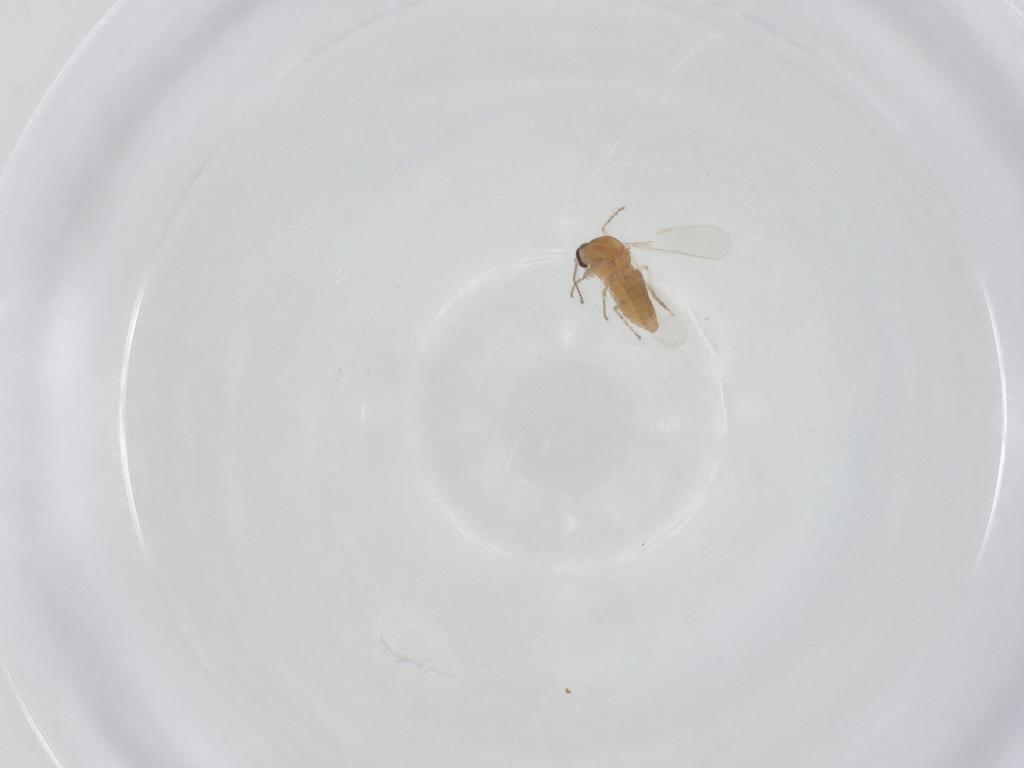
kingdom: Animalia
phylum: Arthropoda
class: Insecta
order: Diptera
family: Ephydridae
